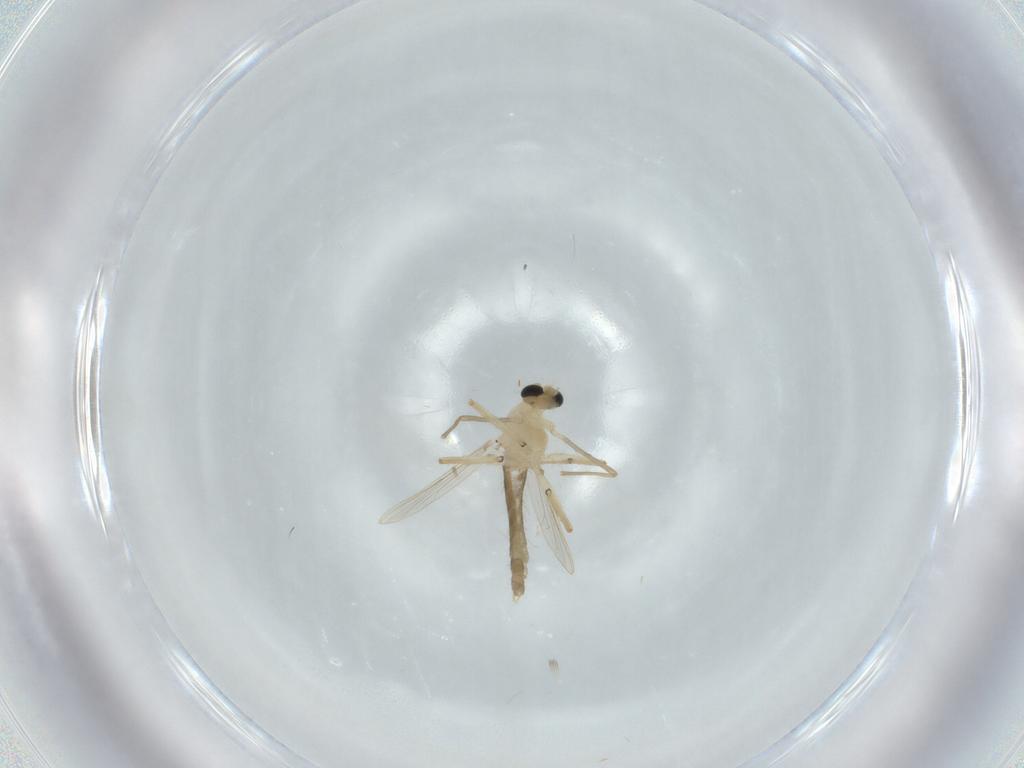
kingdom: Animalia
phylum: Arthropoda
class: Insecta
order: Diptera
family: Chironomidae
